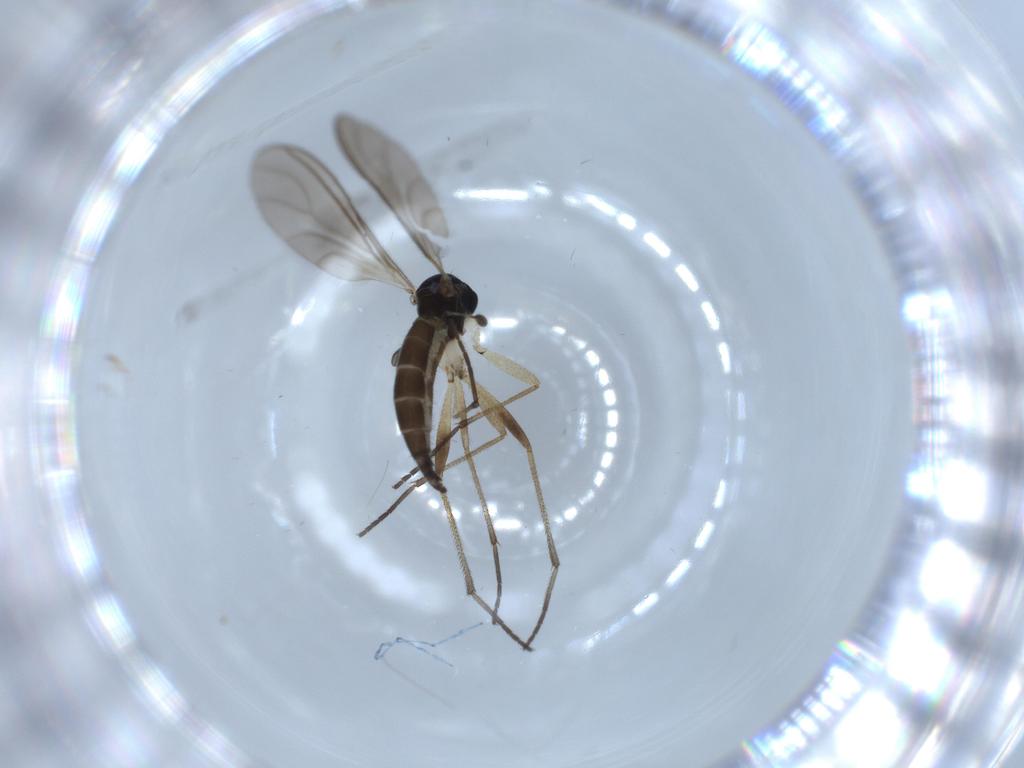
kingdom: Animalia
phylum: Arthropoda
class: Insecta
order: Diptera
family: Sciaridae
